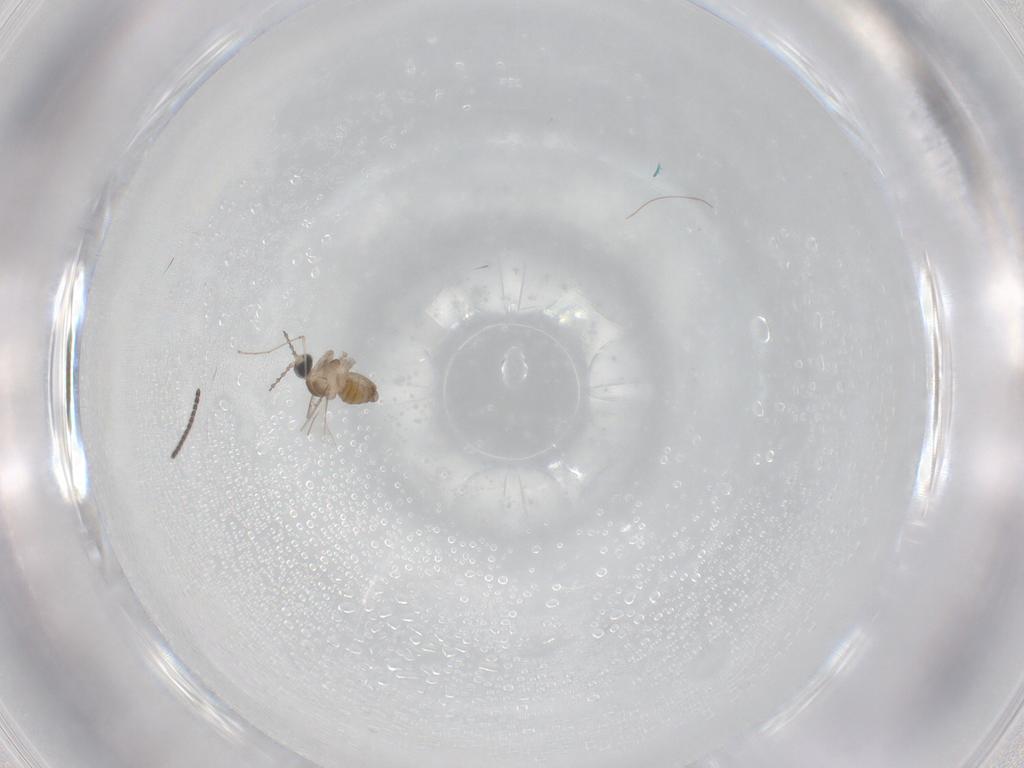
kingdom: Animalia
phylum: Arthropoda
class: Insecta
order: Diptera
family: Cecidomyiidae
